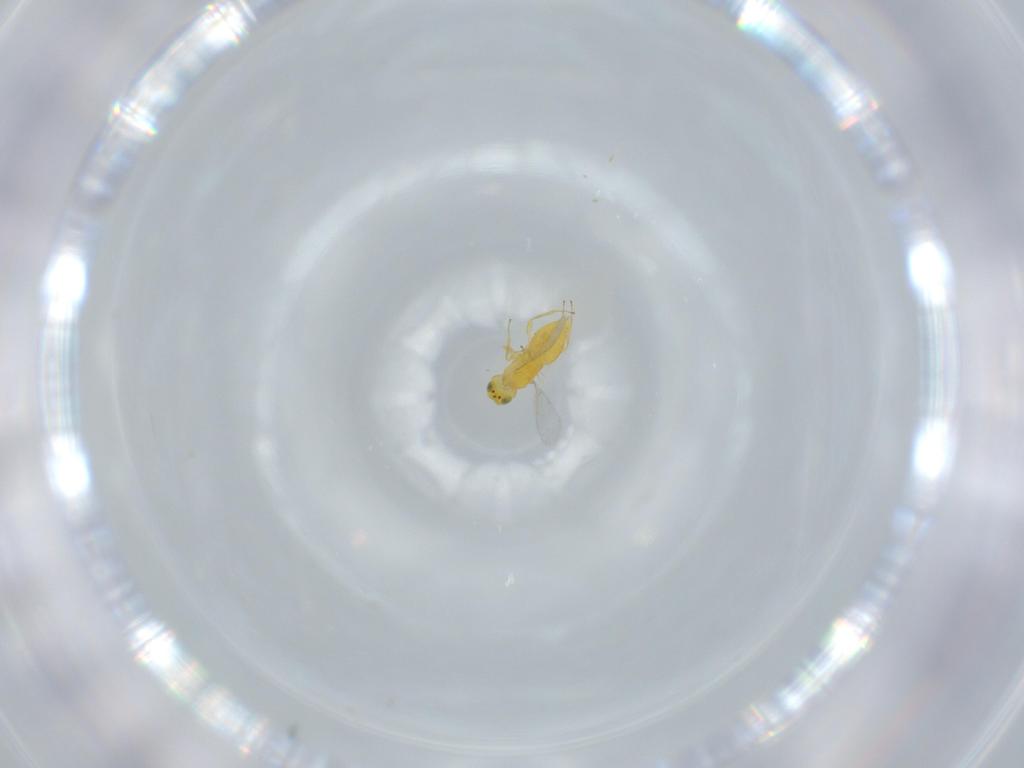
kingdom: Animalia
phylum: Arthropoda
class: Insecta
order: Hymenoptera
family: Aphelinidae
